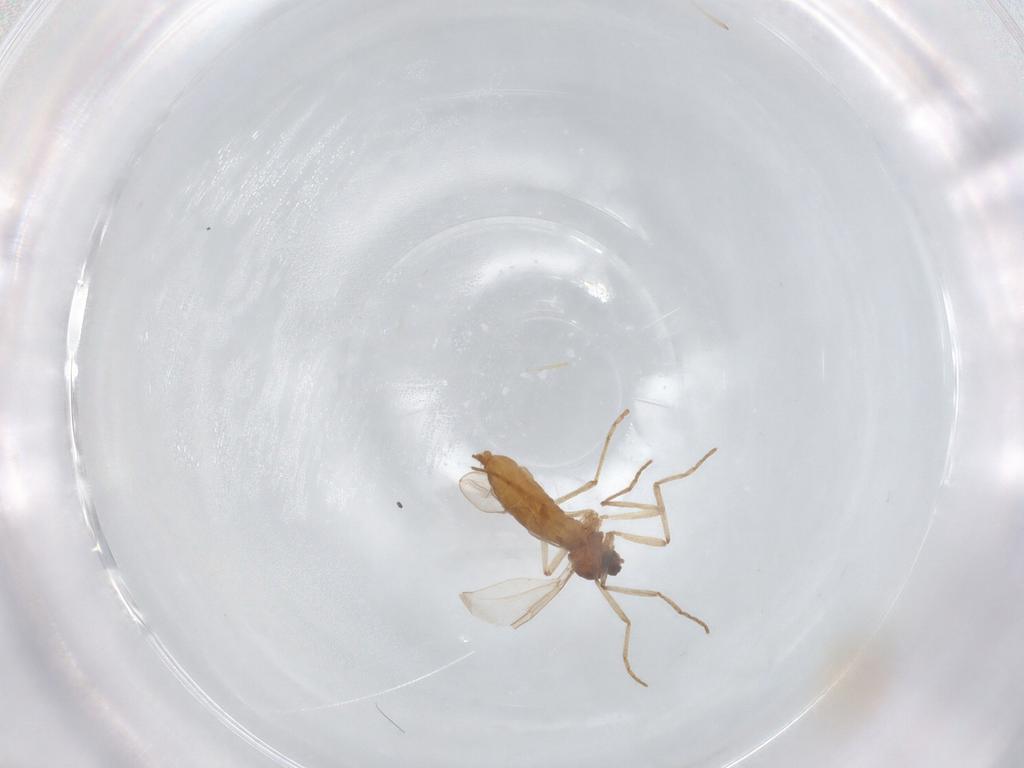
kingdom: Animalia
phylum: Arthropoda
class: Insecta
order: Diptera
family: Cecidomyiidae
